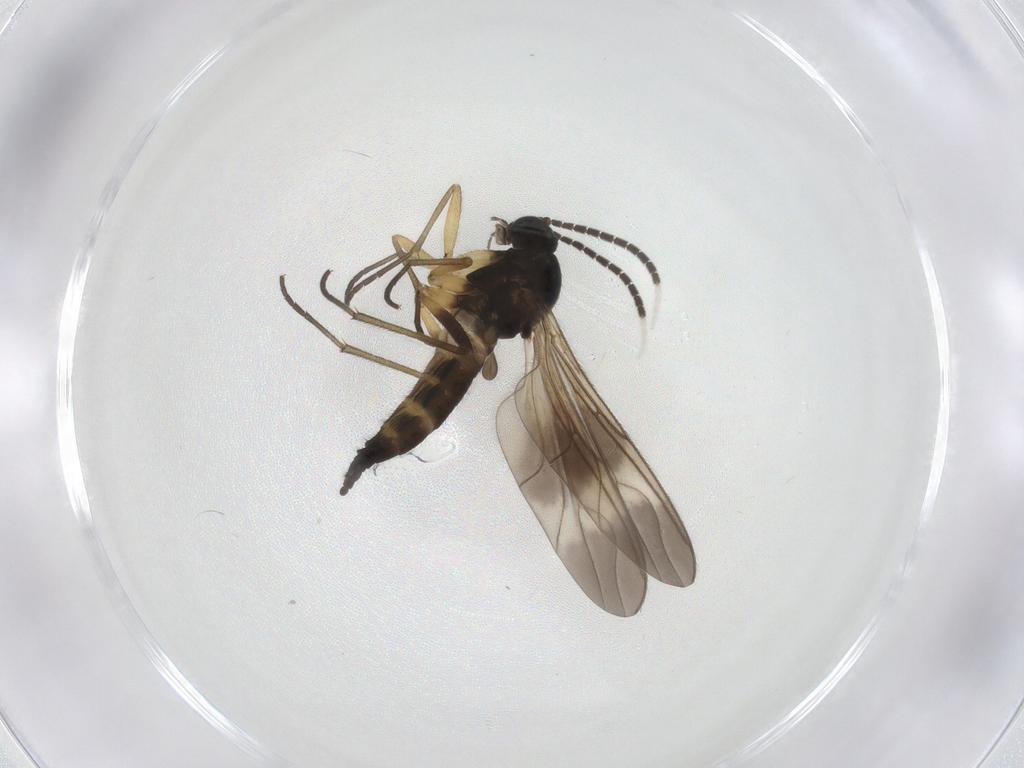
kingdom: Animalia
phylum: Arthropoda
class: Insecta
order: Diptera
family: Sciaridae
